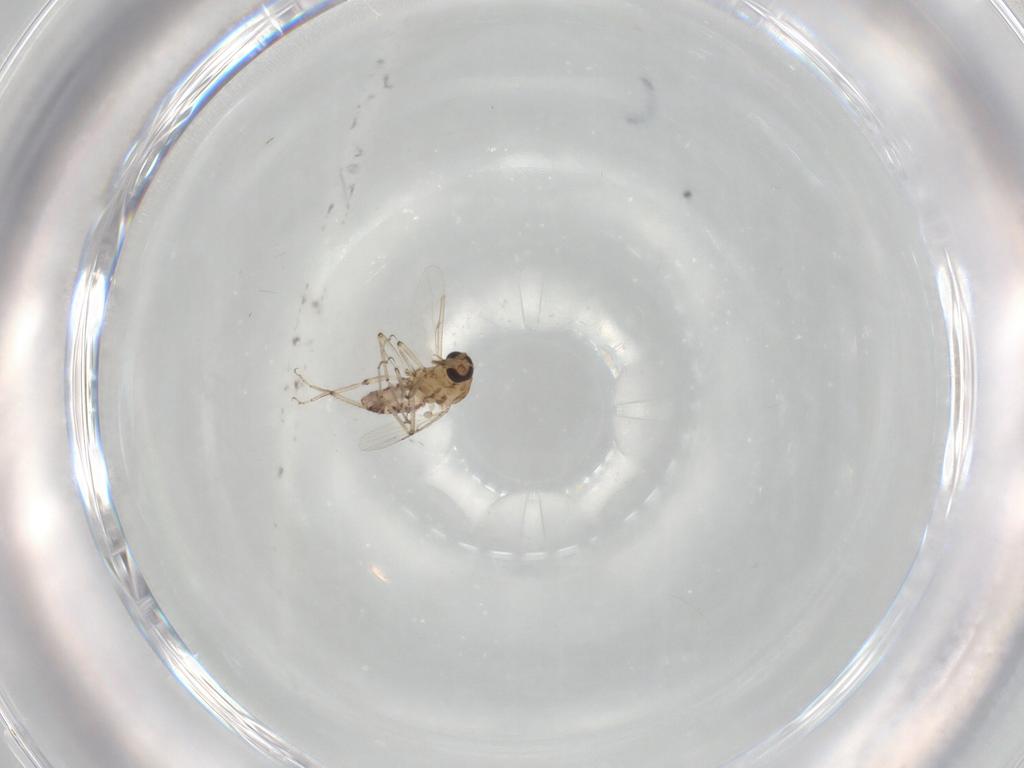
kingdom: Animalia
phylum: Arthropoda
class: Insecta
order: Diptera
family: Ceratopogonidae
